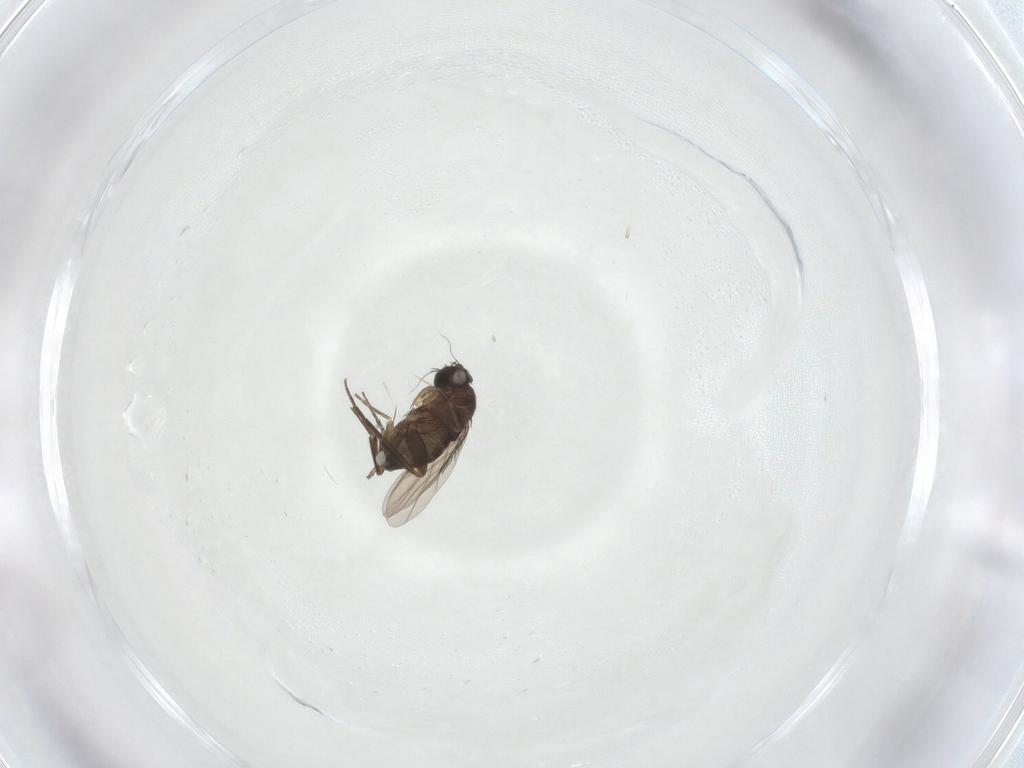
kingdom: Animalia
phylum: Arthropoda
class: Insecta
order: Diptera
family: Phoridae
